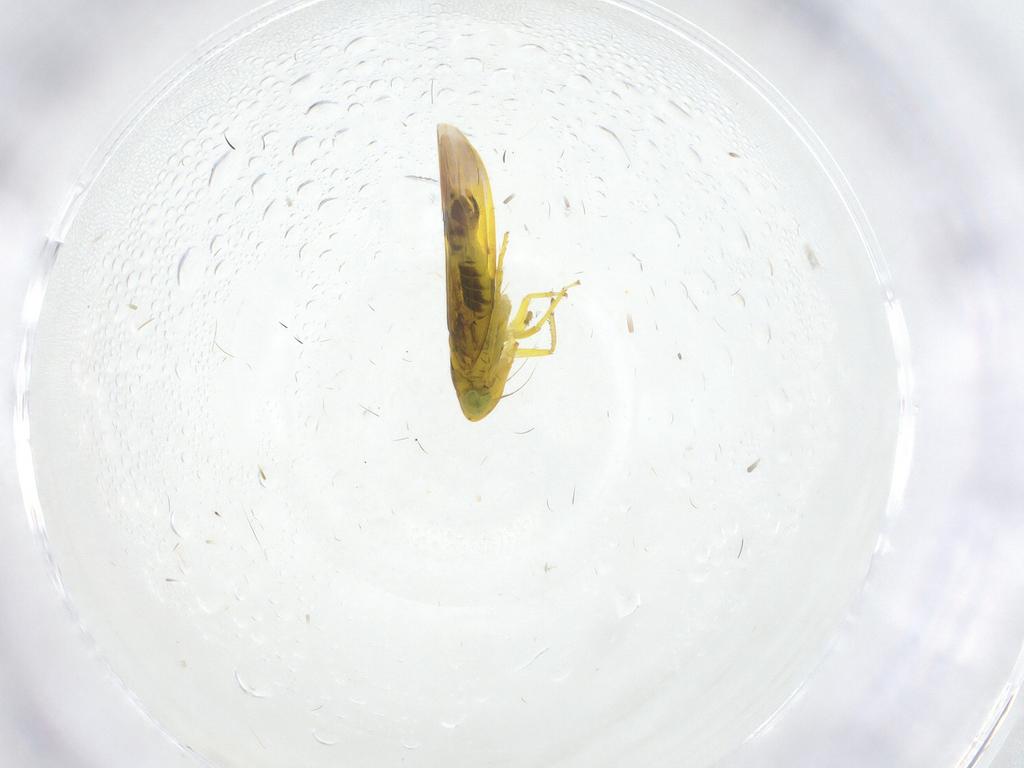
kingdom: Animalia
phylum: Arthropoda
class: Insecta
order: Hemiptera
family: Cicadellidae
